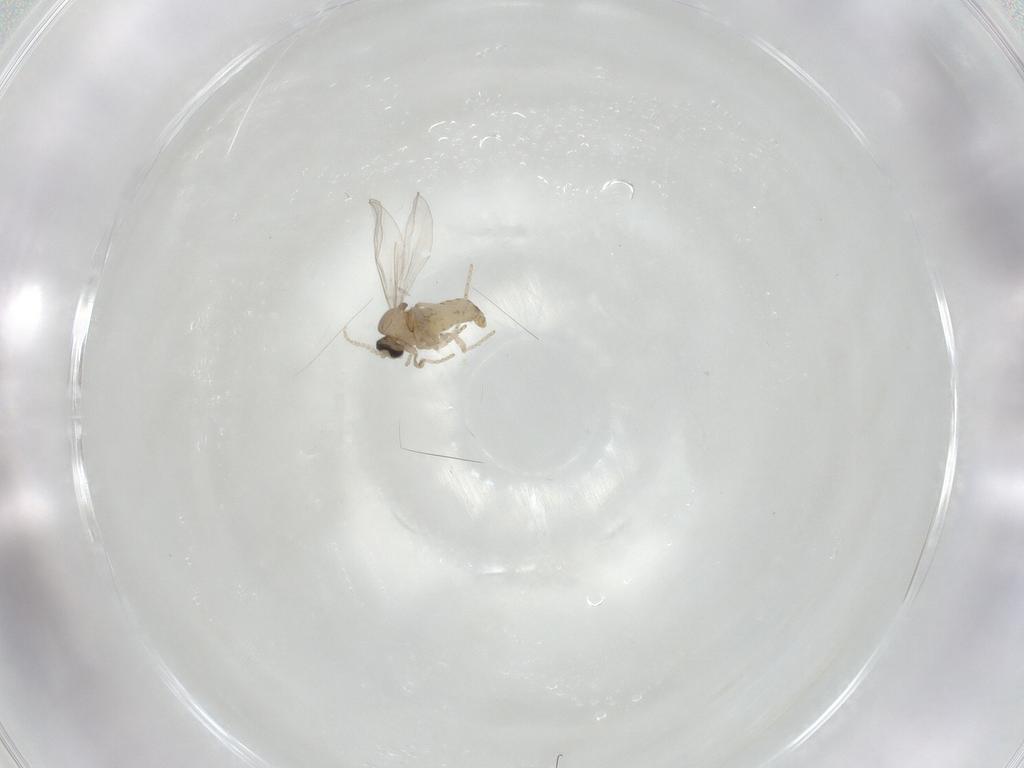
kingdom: Animalia
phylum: Arthropoda
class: Insecta
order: Diptera
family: Cecidomyiidae
